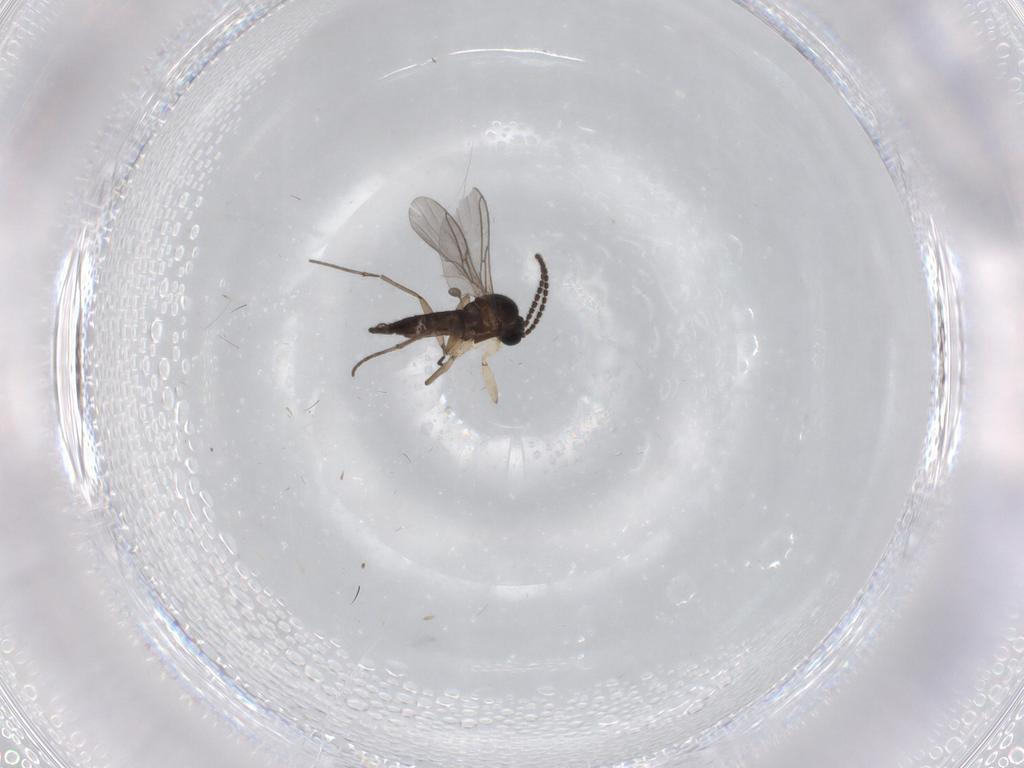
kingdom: Animalia
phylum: Arthropoda
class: Insecta
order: Diptera
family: Sciaridae
